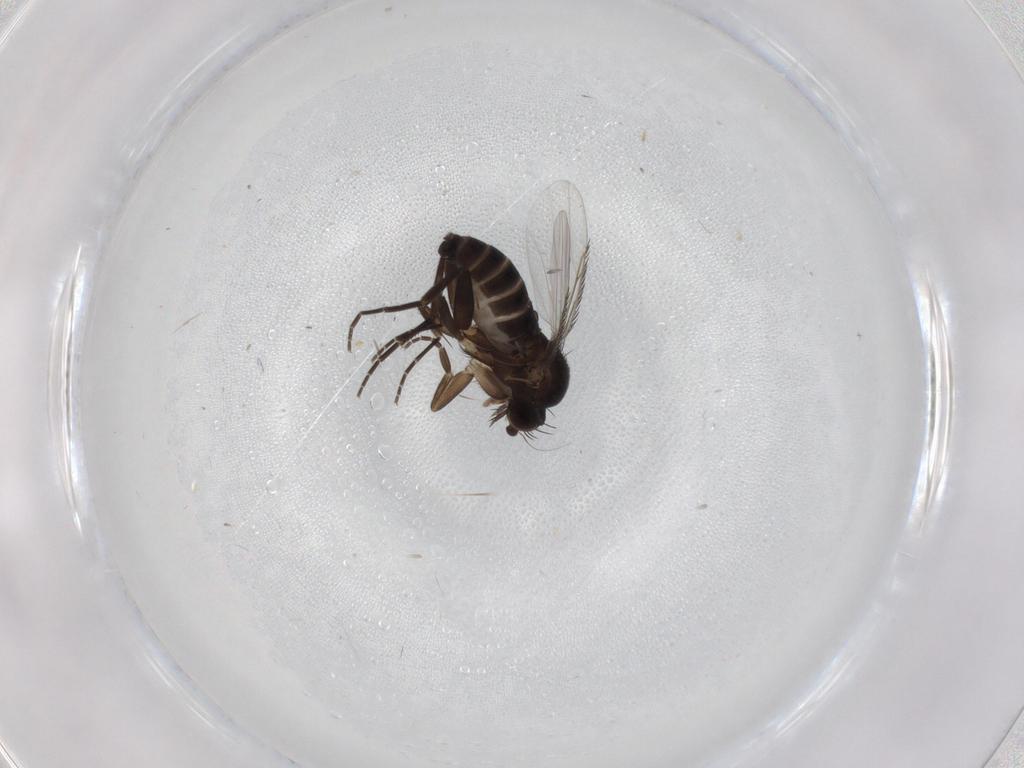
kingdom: Animalia
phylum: Arthropoda
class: Insecta
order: Diptera
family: Phoridae
